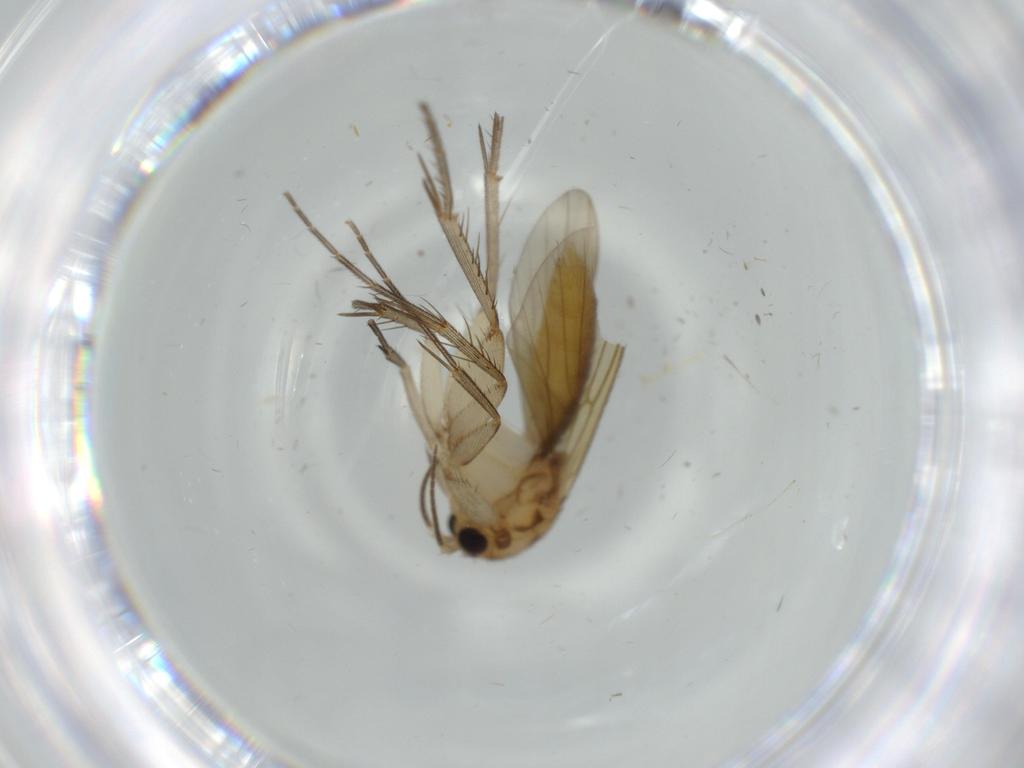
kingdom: Animalia
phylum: Arthropoda
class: Insecta
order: Diptera
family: Mycetophilidae
